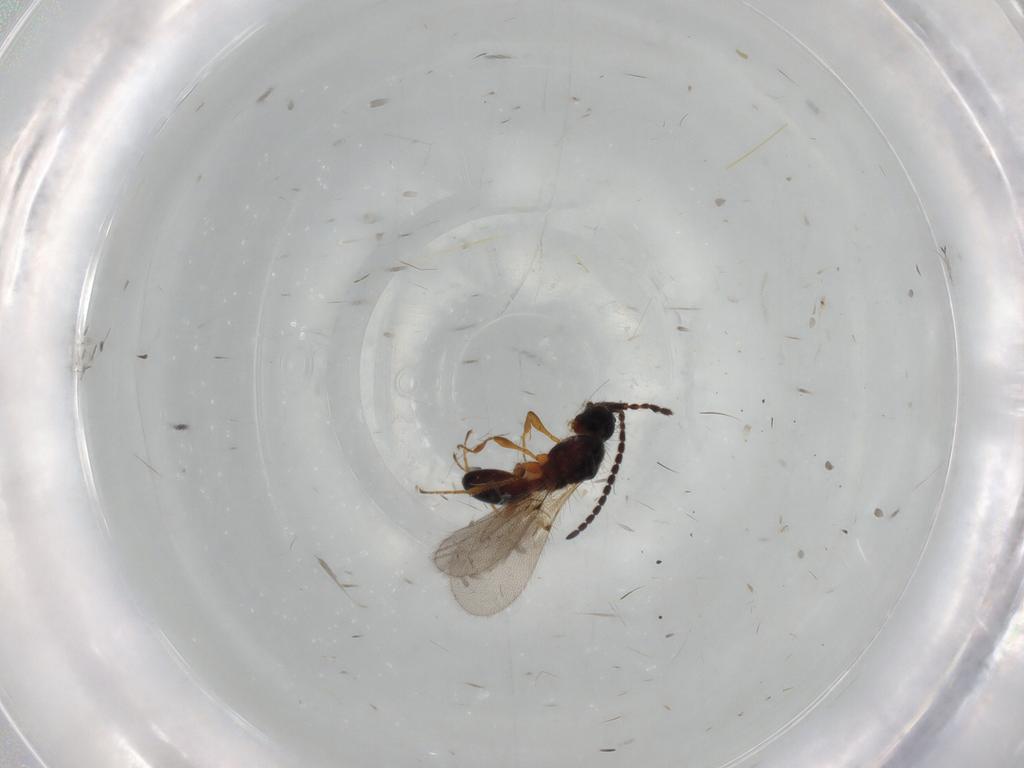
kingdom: Animalia
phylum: Arthropoda
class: Insecta
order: Hymenoptera
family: Diapriidae
